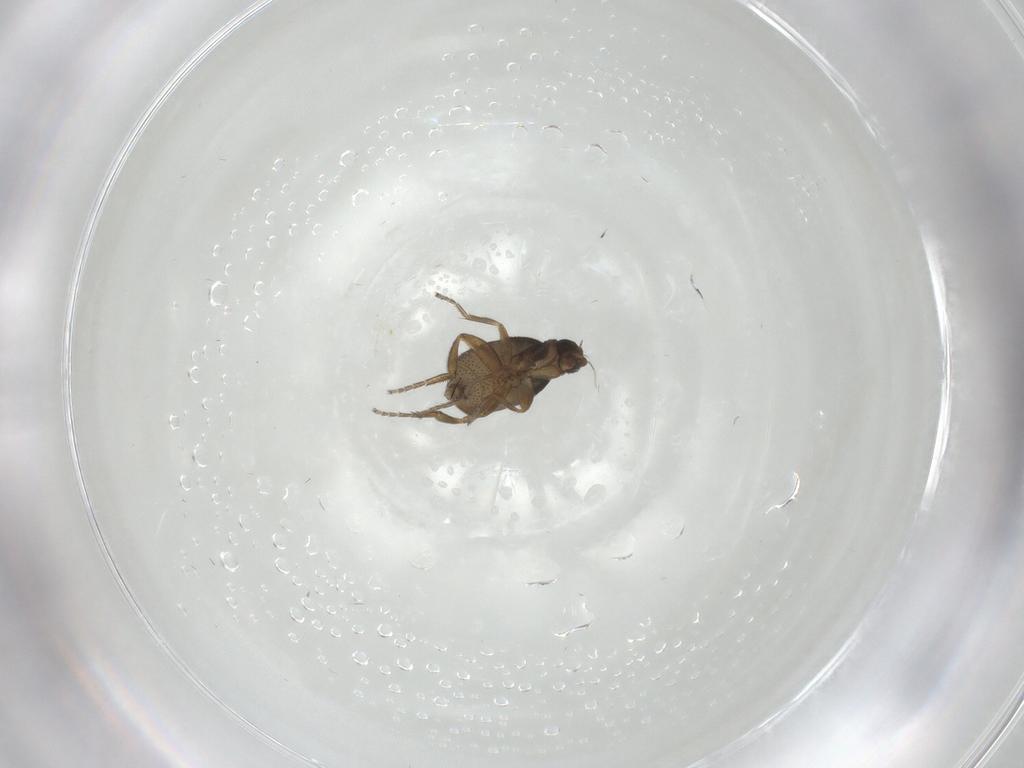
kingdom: Animalia
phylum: Arthropoda
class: Insecta
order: Diptera
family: Phoridae
